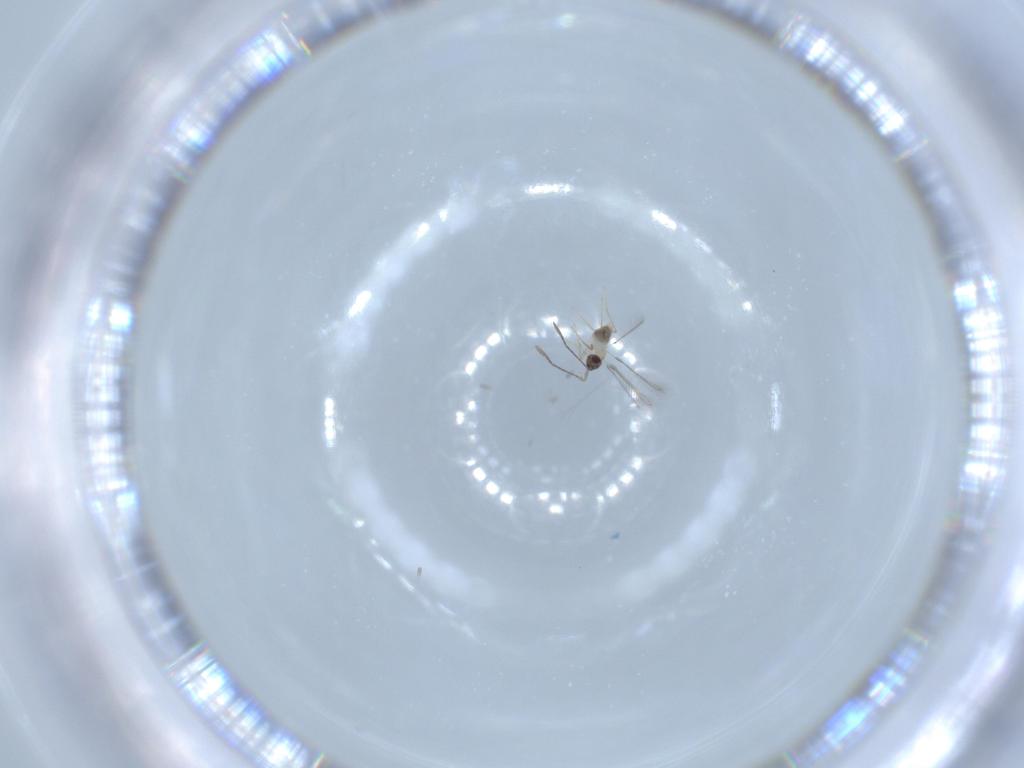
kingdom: Animalia
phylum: Arthropoda
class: Insecta
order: Hymenoptera
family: Mymaridae
